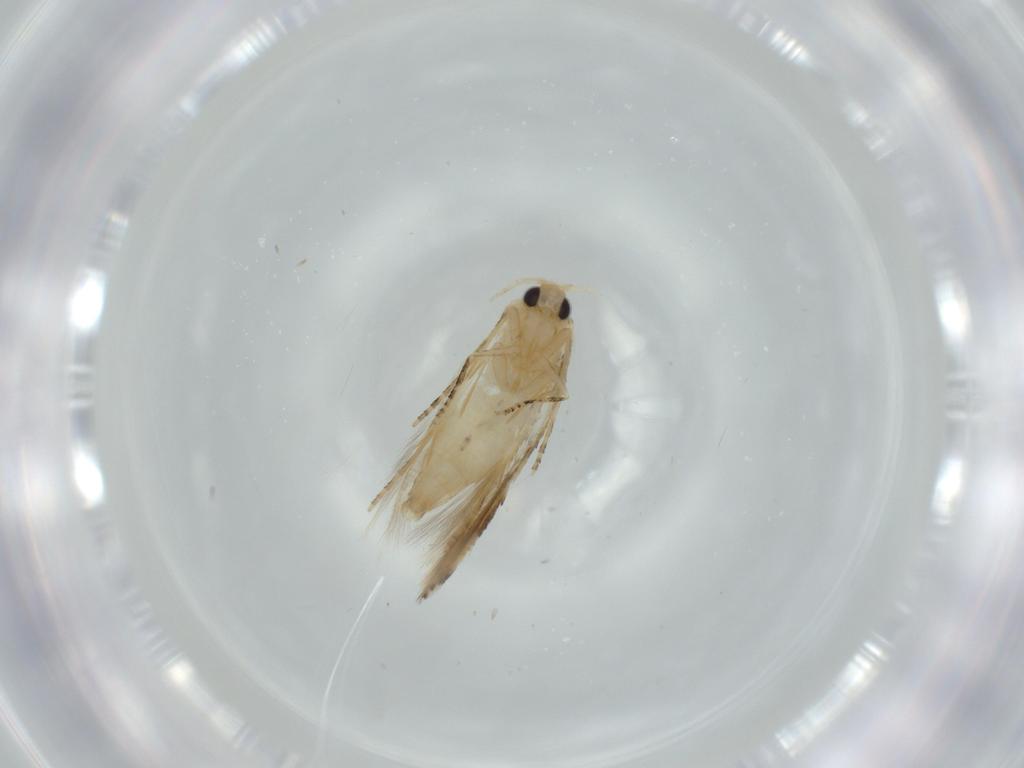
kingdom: Animalia
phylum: Arthropoda
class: Insecta
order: Lepidoptera
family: Bucculatricidae
